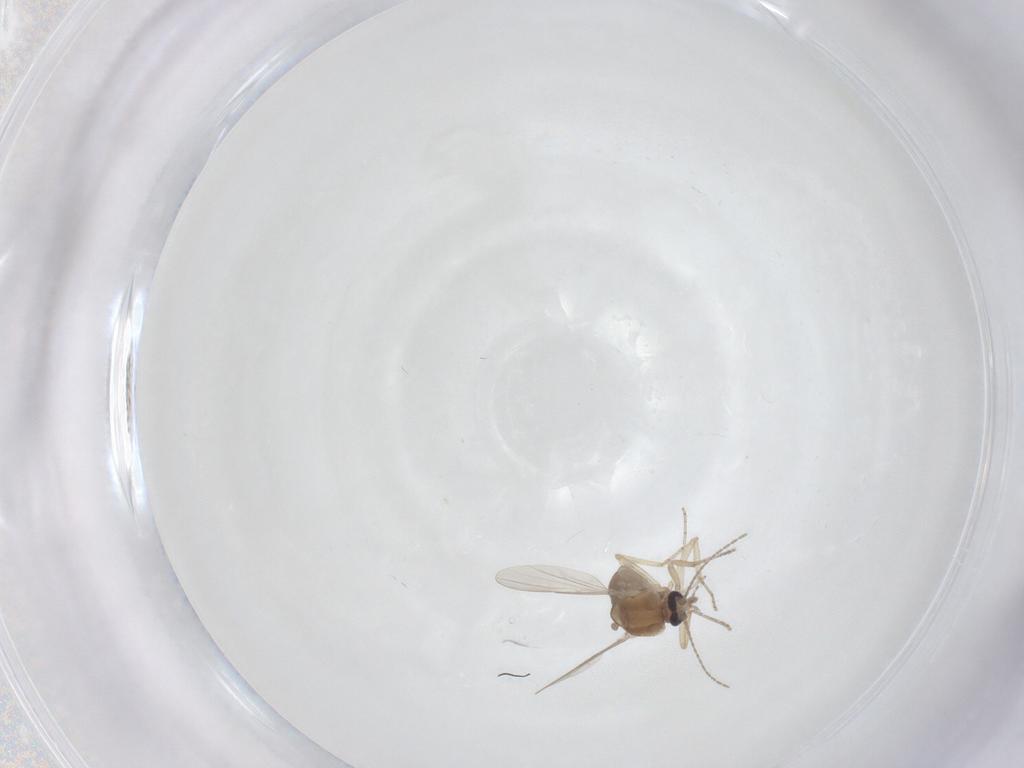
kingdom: Animalia
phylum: Arthropoda
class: Insecta
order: Diptera
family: Ceratopogonidae
